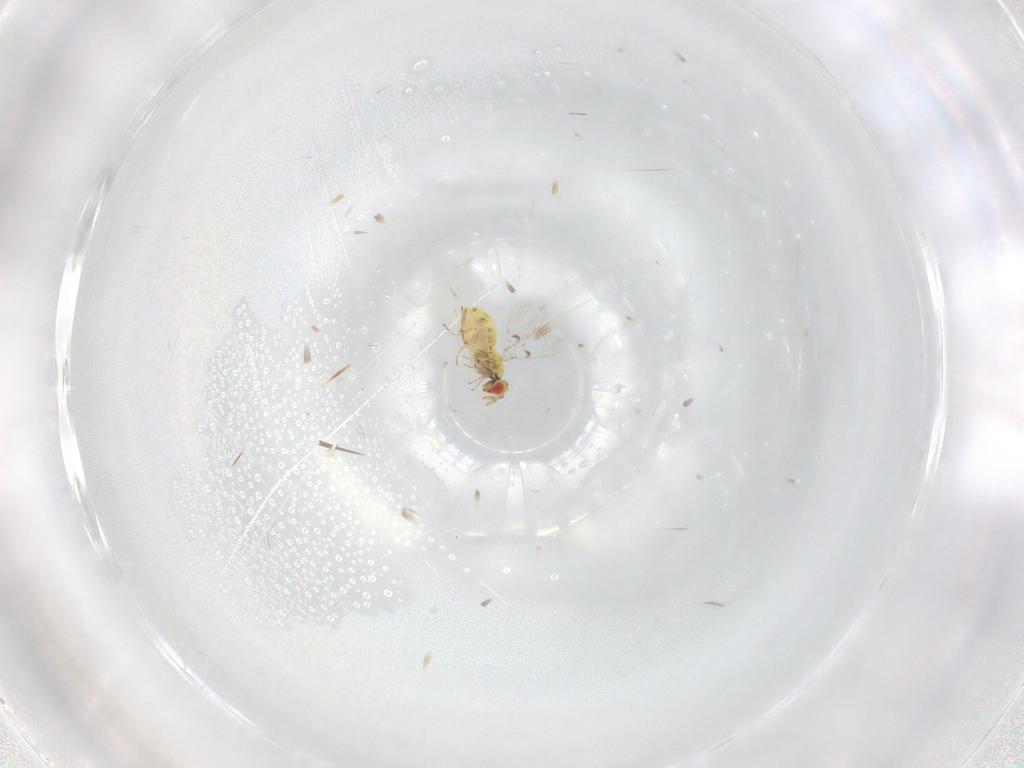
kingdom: Animalia
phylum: Arthropoda
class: Insecta
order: Hymenoptera
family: Trichogrammatidae
